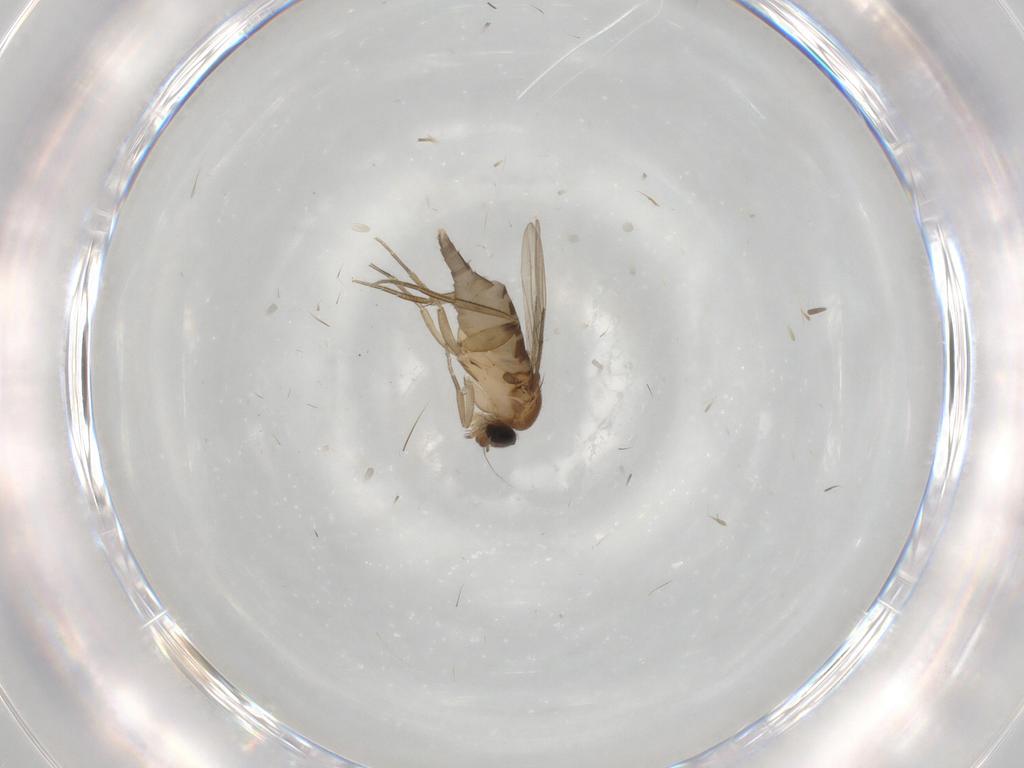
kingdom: Animalia
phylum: Arthropoda
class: Insecta
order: Diptera
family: Phoridae
